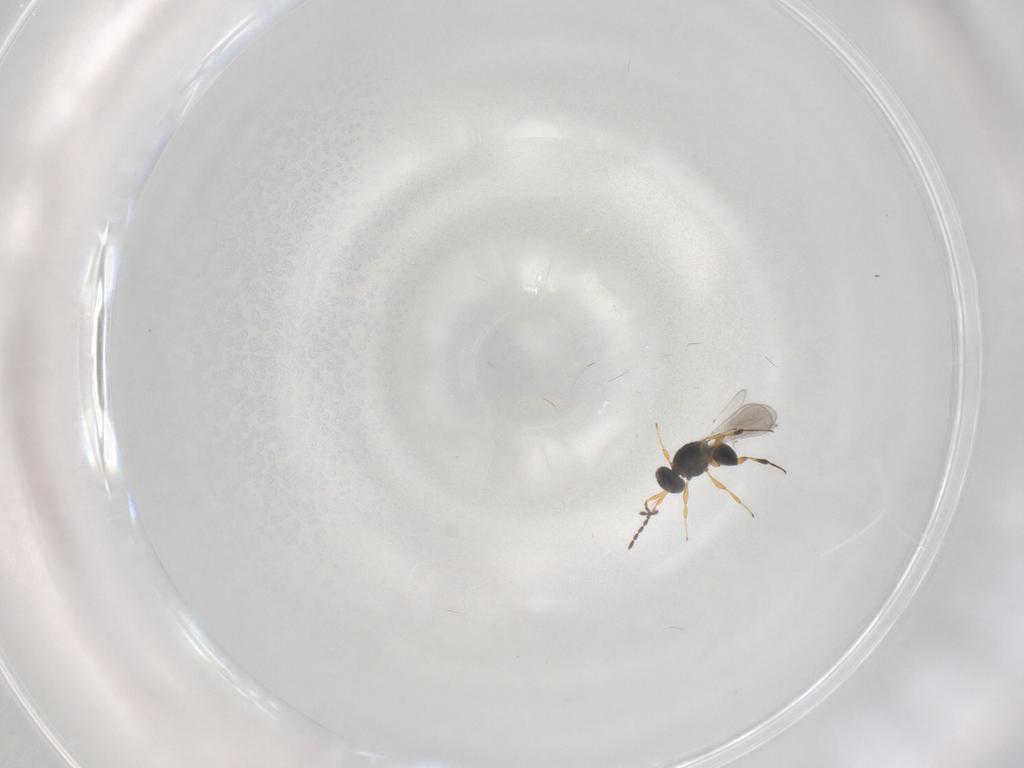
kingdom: Animalia
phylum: Arthropoda
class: Insecta
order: Hymenoptera
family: Platygastridae
